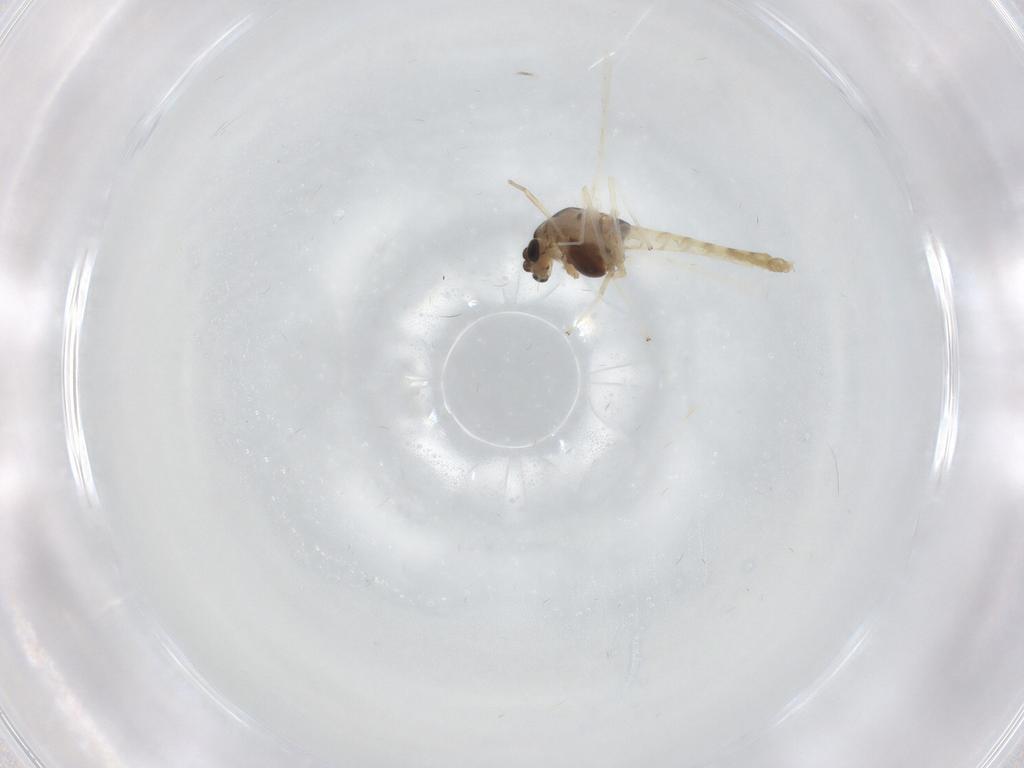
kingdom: Animalia
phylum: Arthropoda
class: Insecta
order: Diptera
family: Chironomidae
